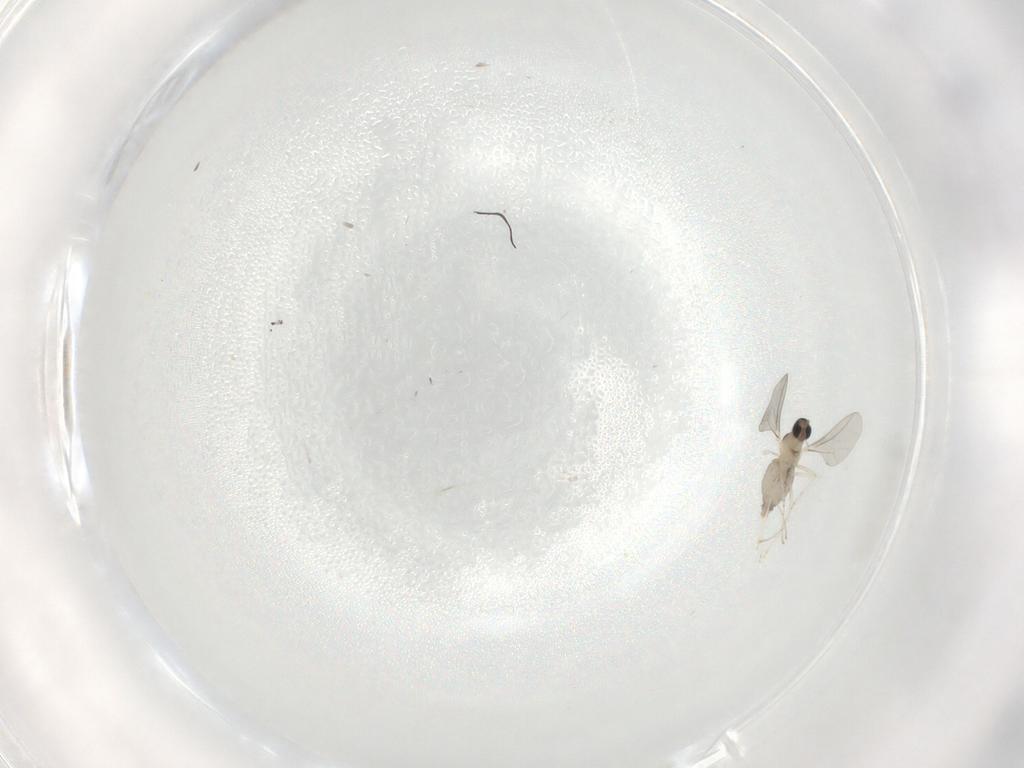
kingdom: Animalia
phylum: Arthropoda
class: Insecta
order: Diptera
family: Cecidomyiidae
